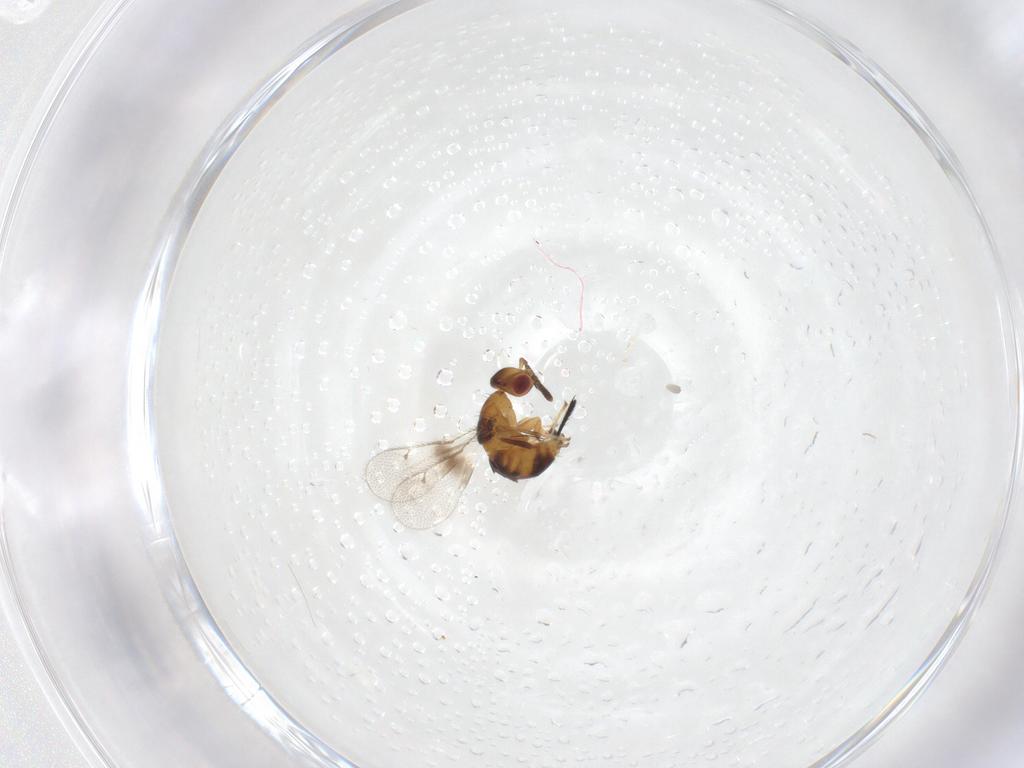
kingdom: Animalia
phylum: Arthropoda
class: Insecta
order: Hymenoptera
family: Torymidae
